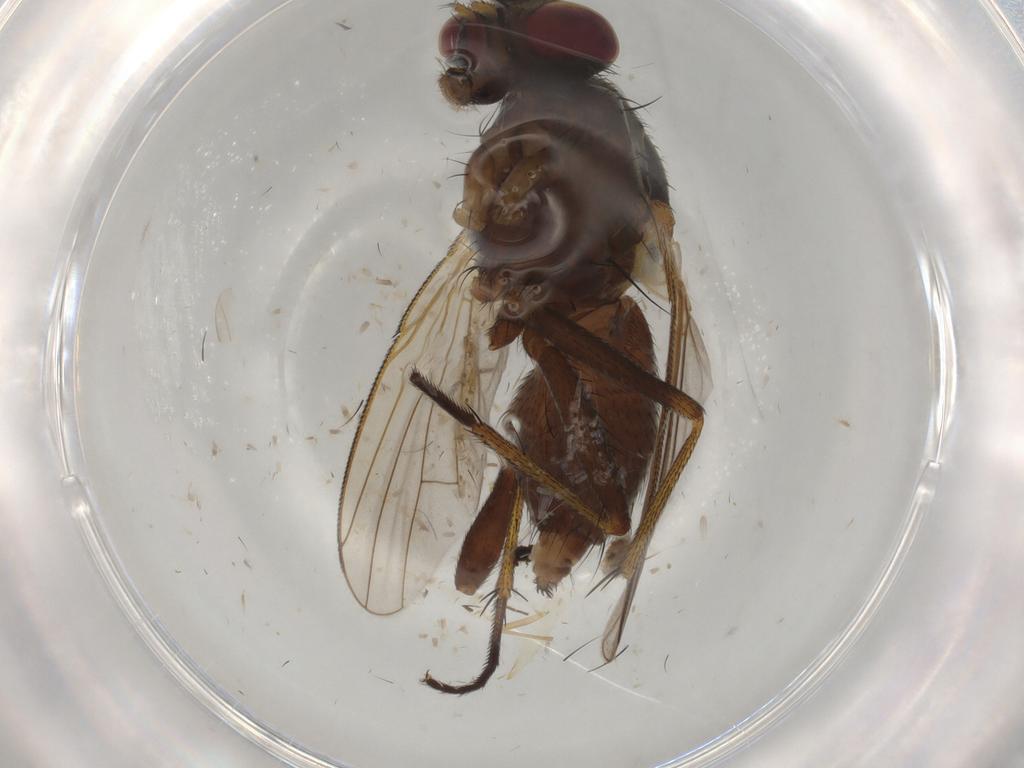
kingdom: Animalia
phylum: Arthropoda
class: Insecta
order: Diptera
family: Muscidae
